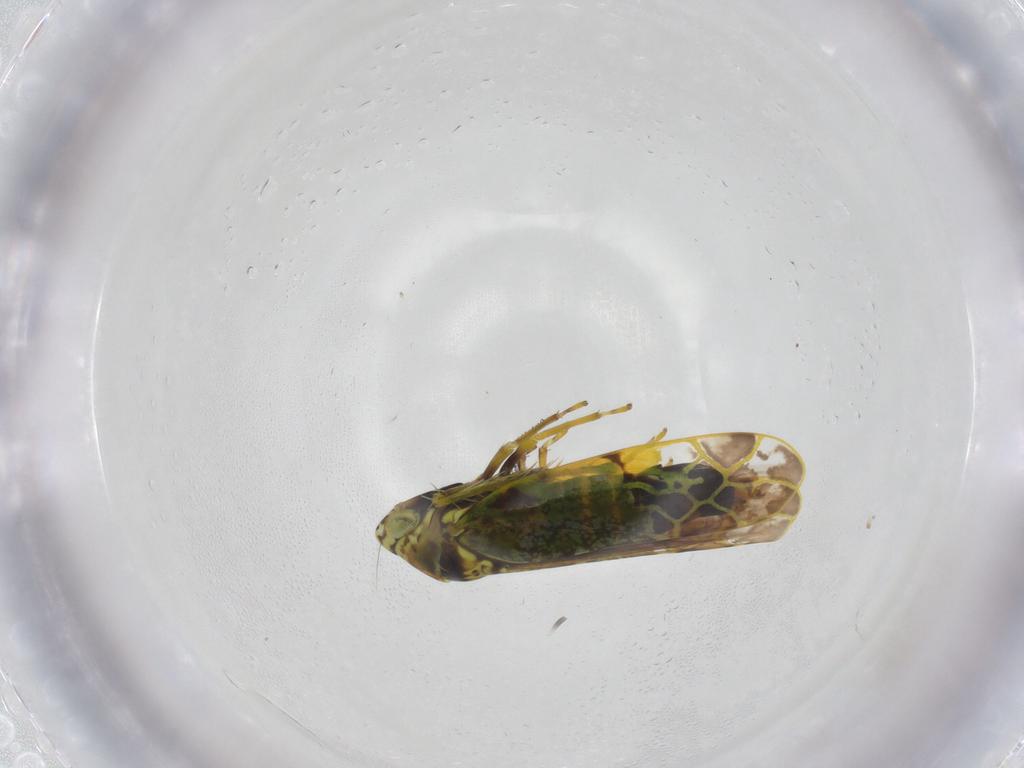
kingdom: Animalia
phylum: Arthropoda
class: Insecta
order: Hemiptera
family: Cicadellidae
